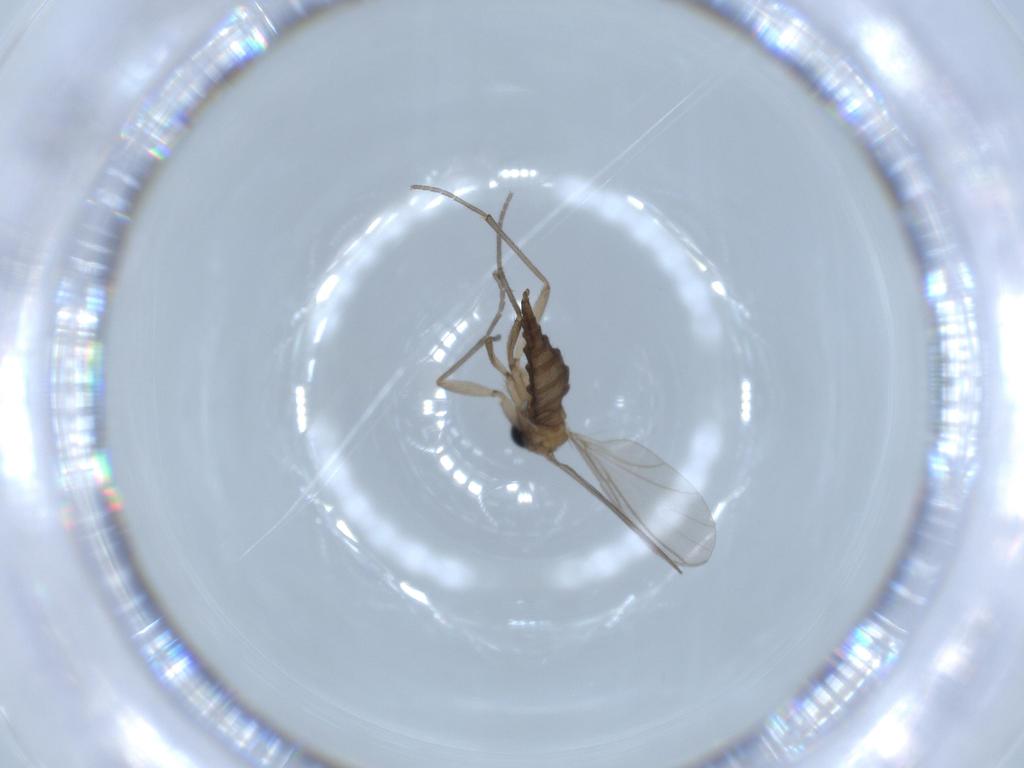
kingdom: Animalia
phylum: Arthropoda
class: Insecta
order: Diptera
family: Sciaridae
